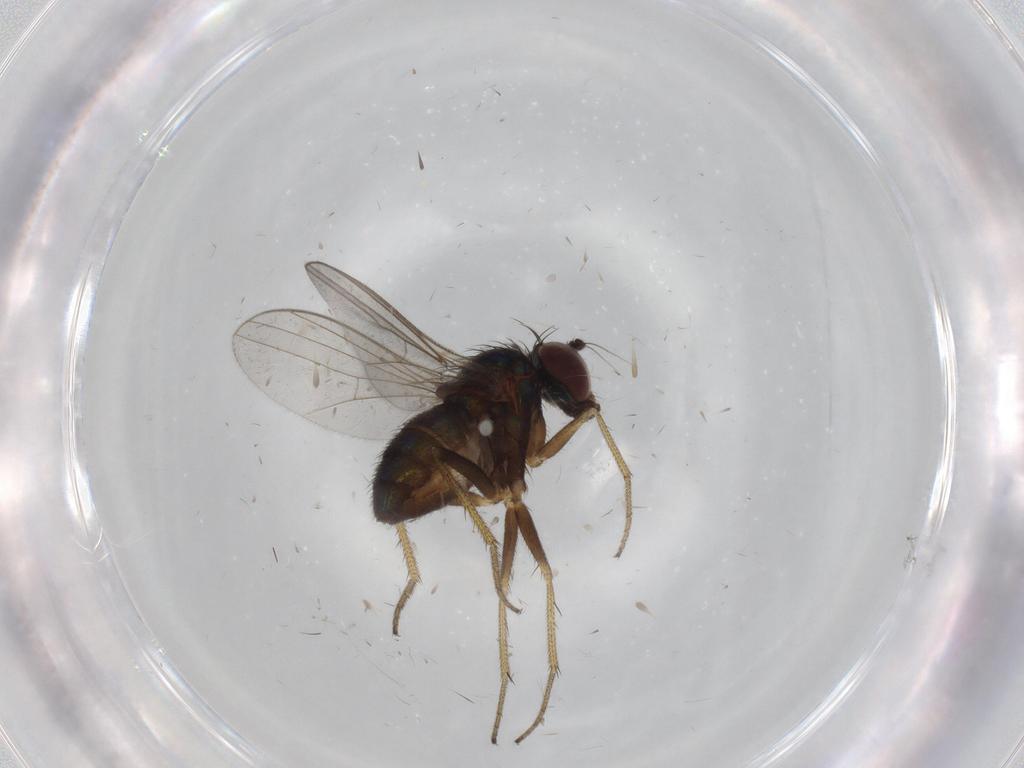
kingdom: Animalia
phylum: Arthropoda
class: Insecta
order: Diptera
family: Dolichopodidae
